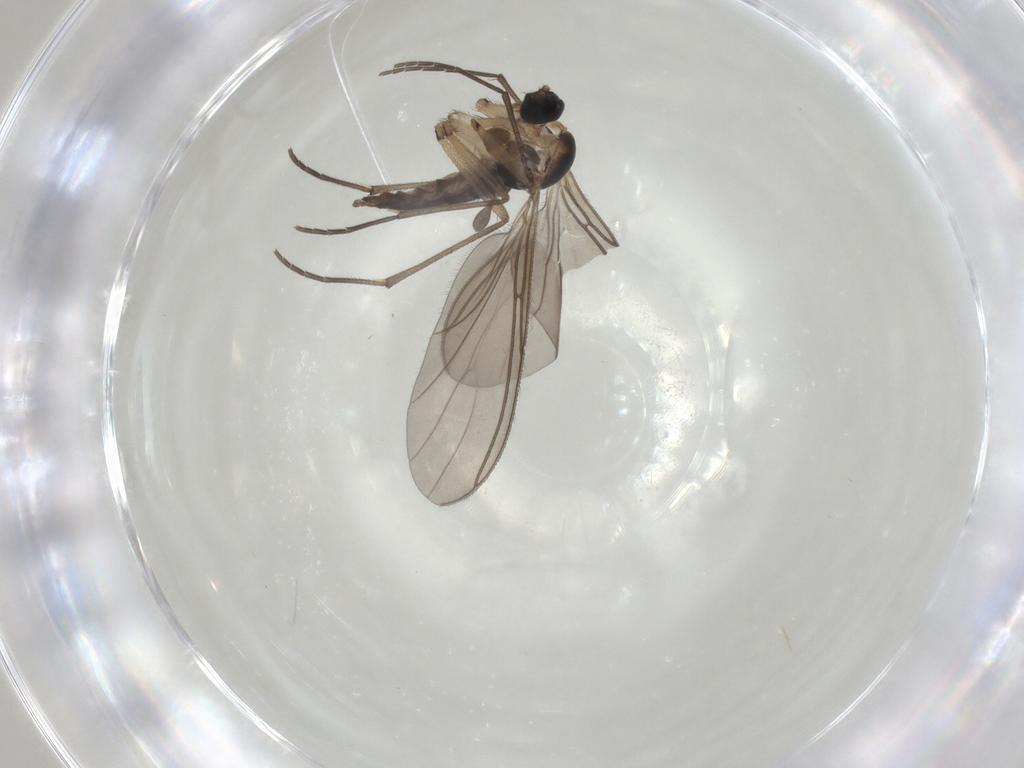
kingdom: Animalia
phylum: Arthropoda
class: Insecta
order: Diptera
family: Sciaridae
